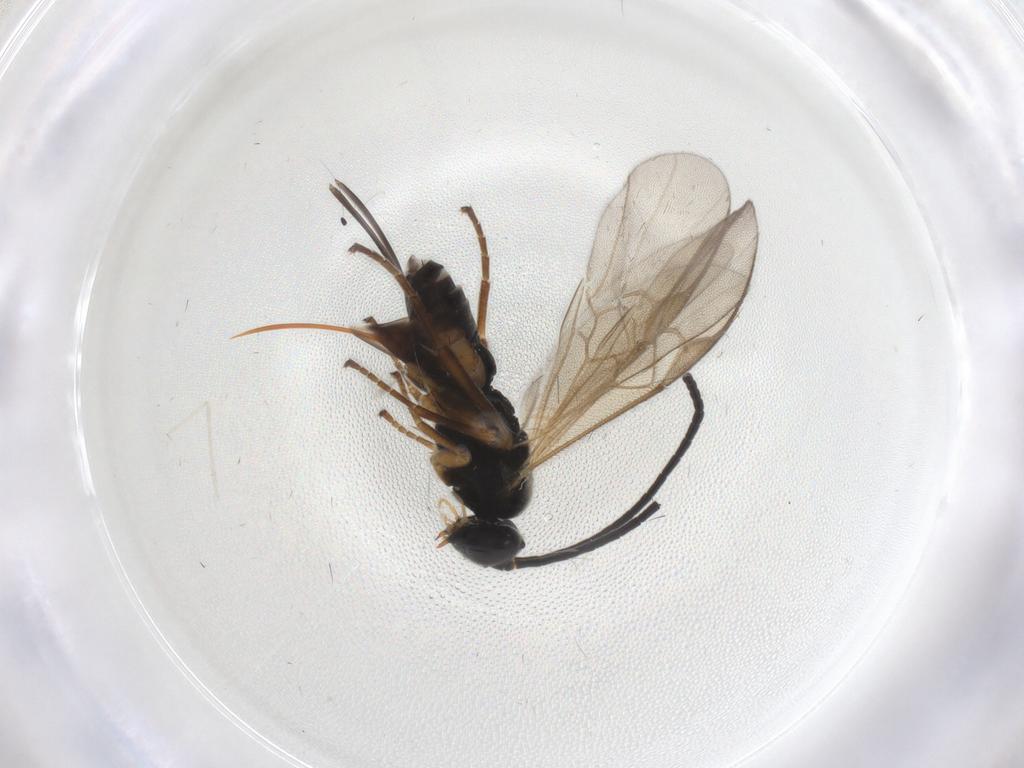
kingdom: Animalia
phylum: Arthropoda
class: Insecta
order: Hymenoptera
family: Braconidae
